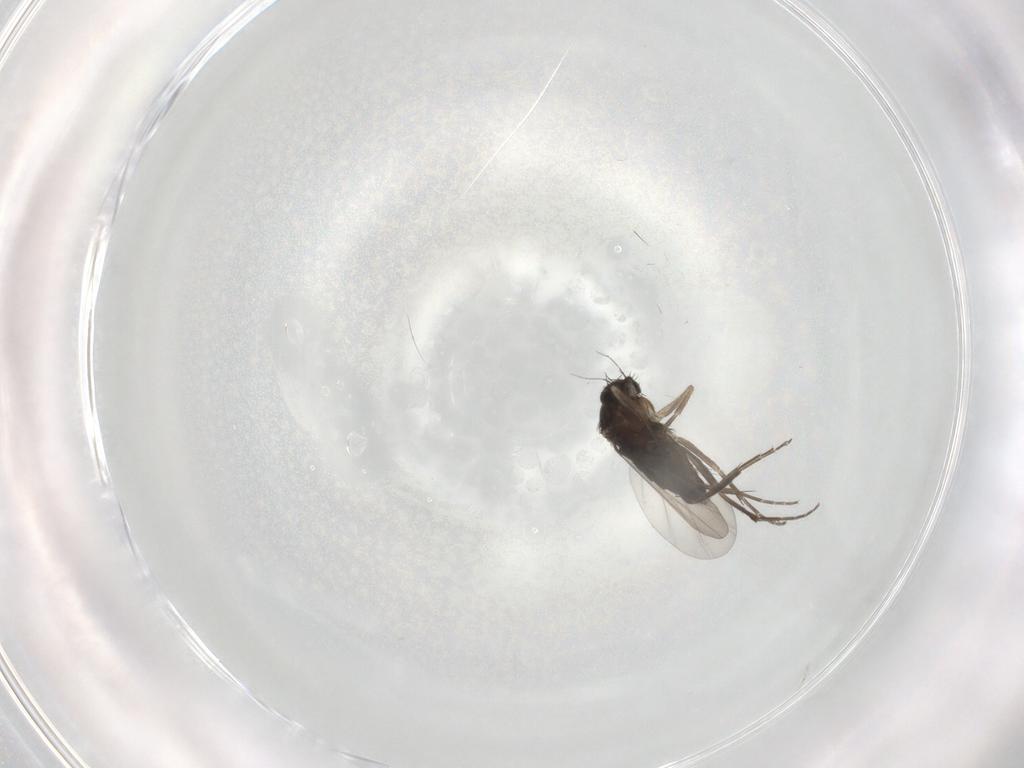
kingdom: Animalia
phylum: Arthropoda
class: Insecta
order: Diptera
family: Phoridae
